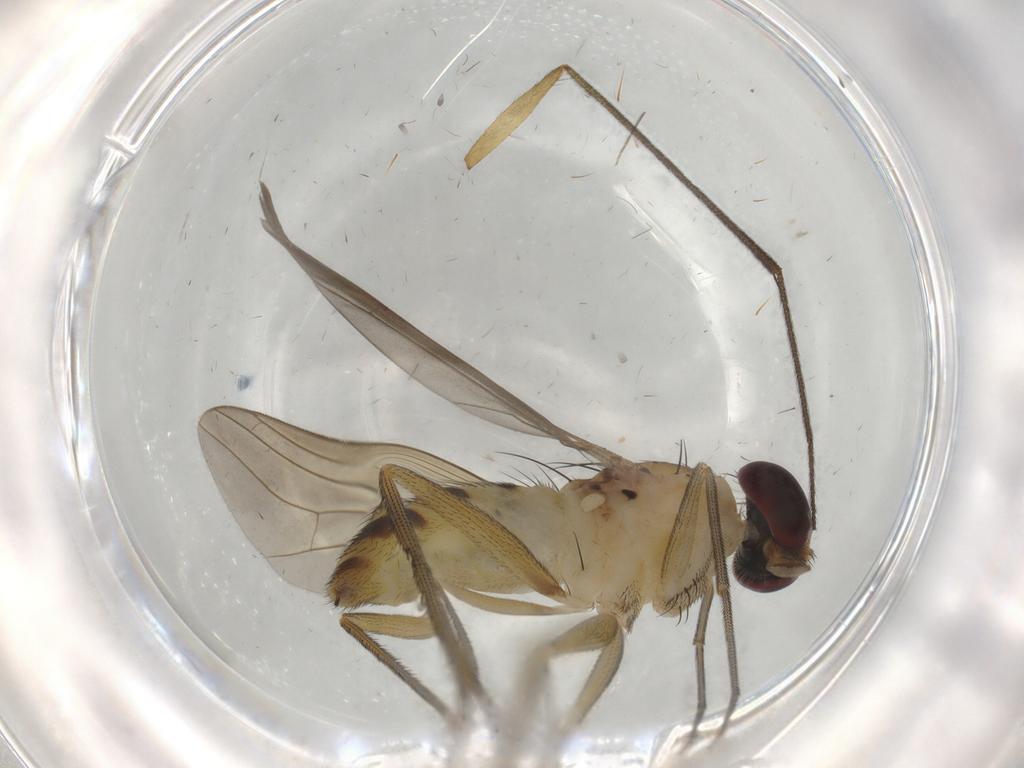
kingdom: Animalia
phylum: Arthropoda
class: Insecta
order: Diptera
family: Dolichopodidae
